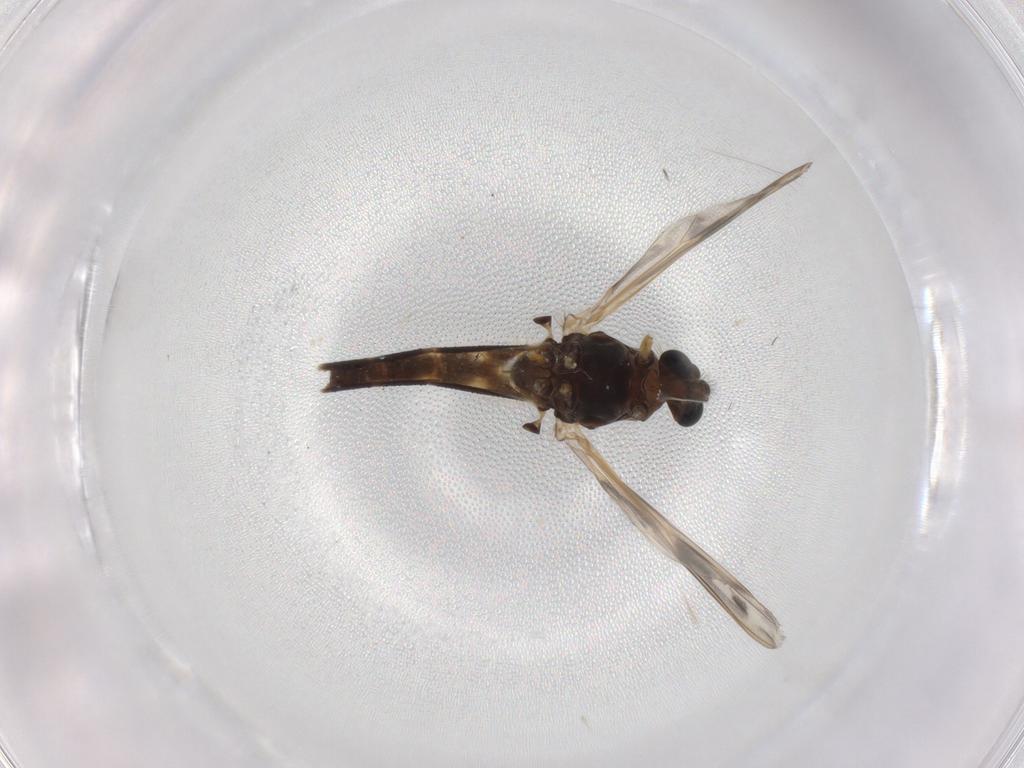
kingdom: Animalia
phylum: Arthropoda
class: Insecta
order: Diptera
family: Chironomidae
